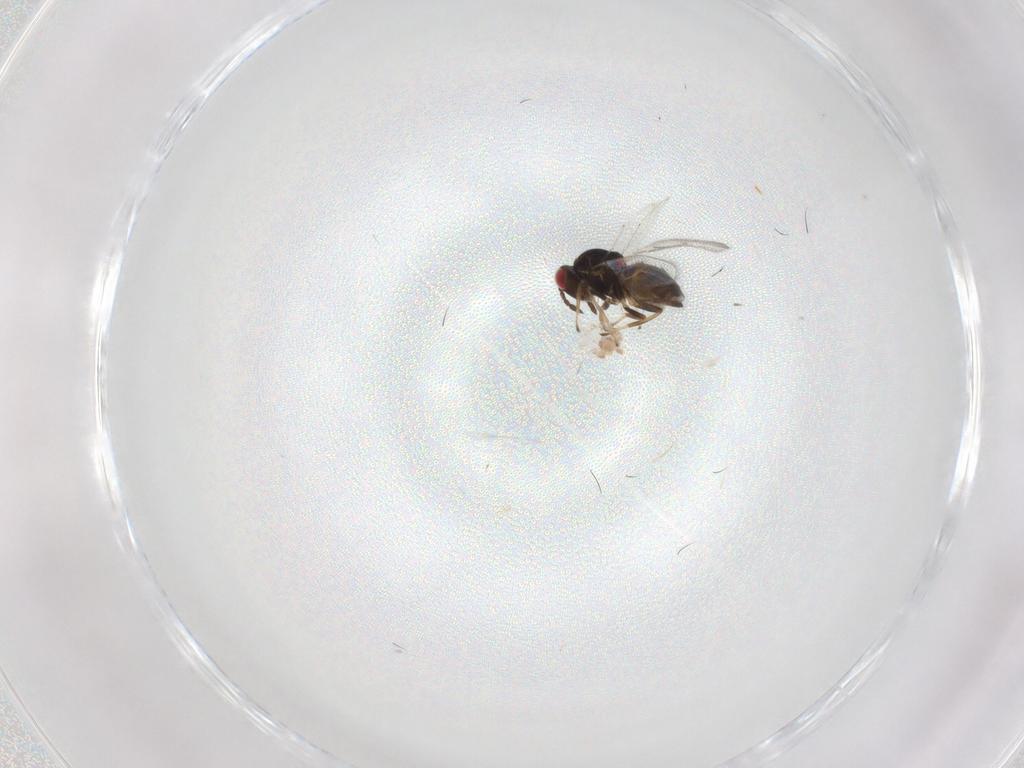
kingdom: Animalia
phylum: Arthropoda
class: Insecta
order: Hymenoptera
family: Eulophidae
